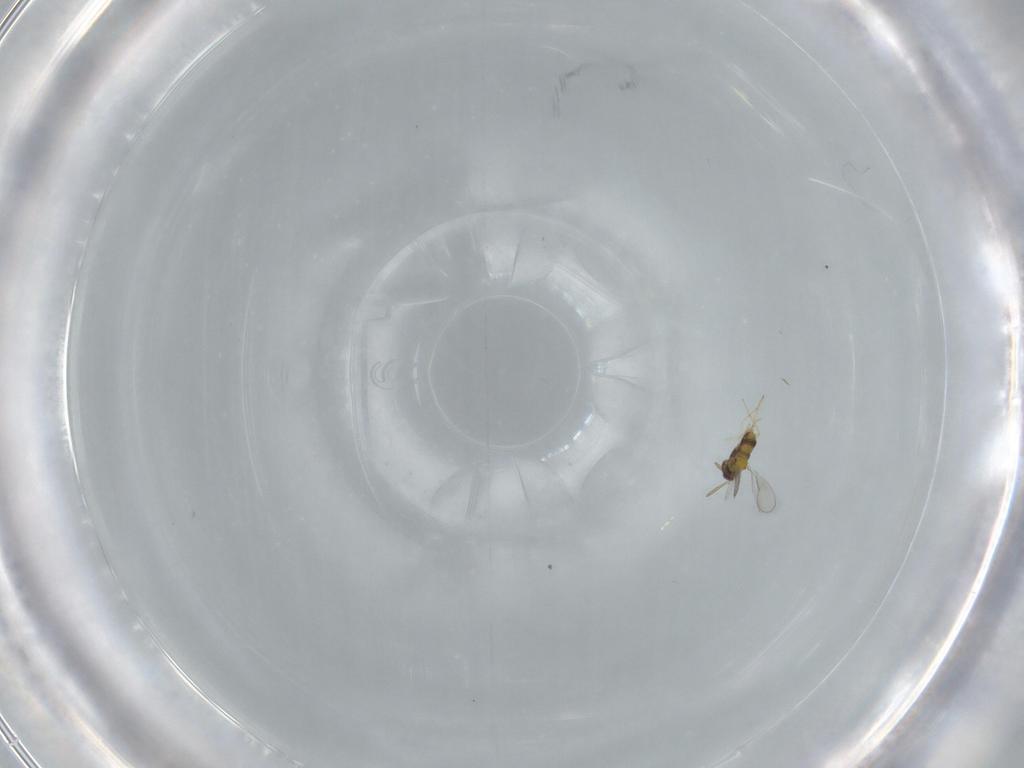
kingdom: Animalia
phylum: Arthropoda
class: Insecta
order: Hymenoptera
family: Aphelinidae
